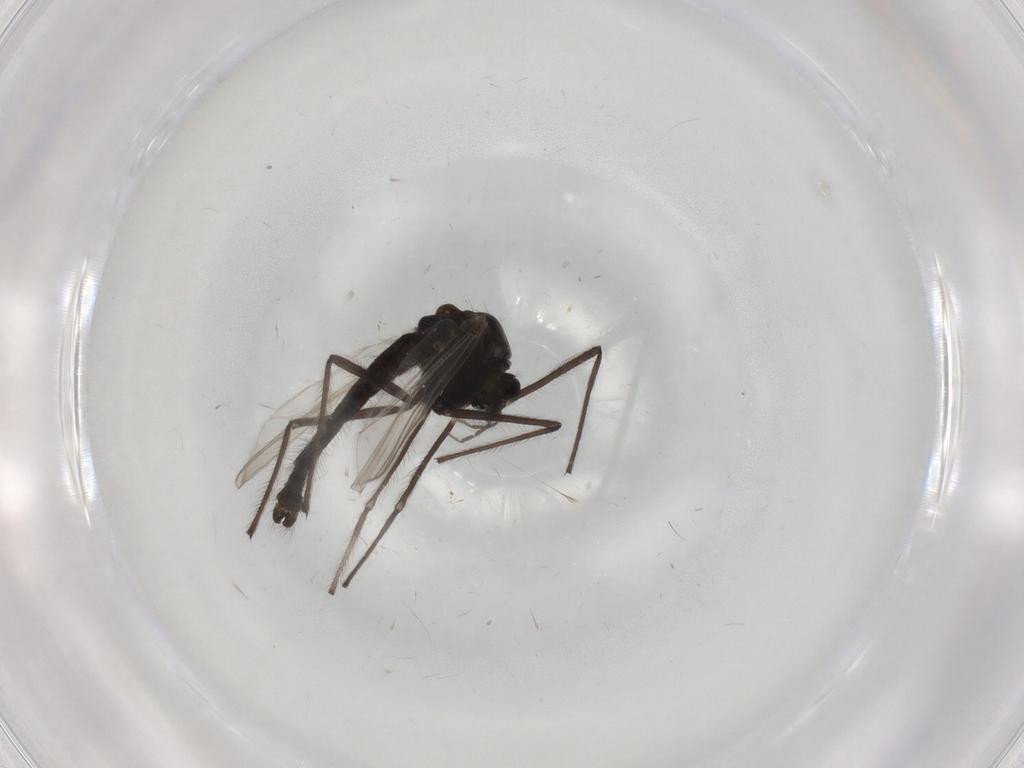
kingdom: Animalia
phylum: Arthropoda
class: Insecta
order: Diptera
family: Chironomidae
